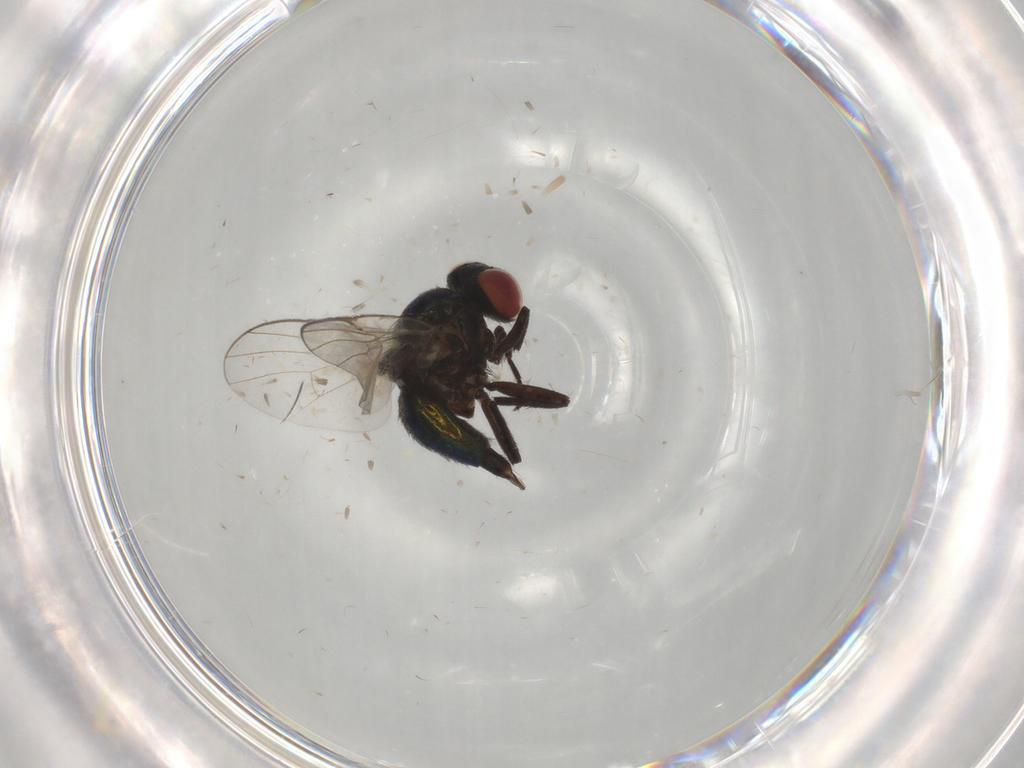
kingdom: Animalia
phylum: Arthropoda
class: Insecta
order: Diptera
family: Agromyzidae
